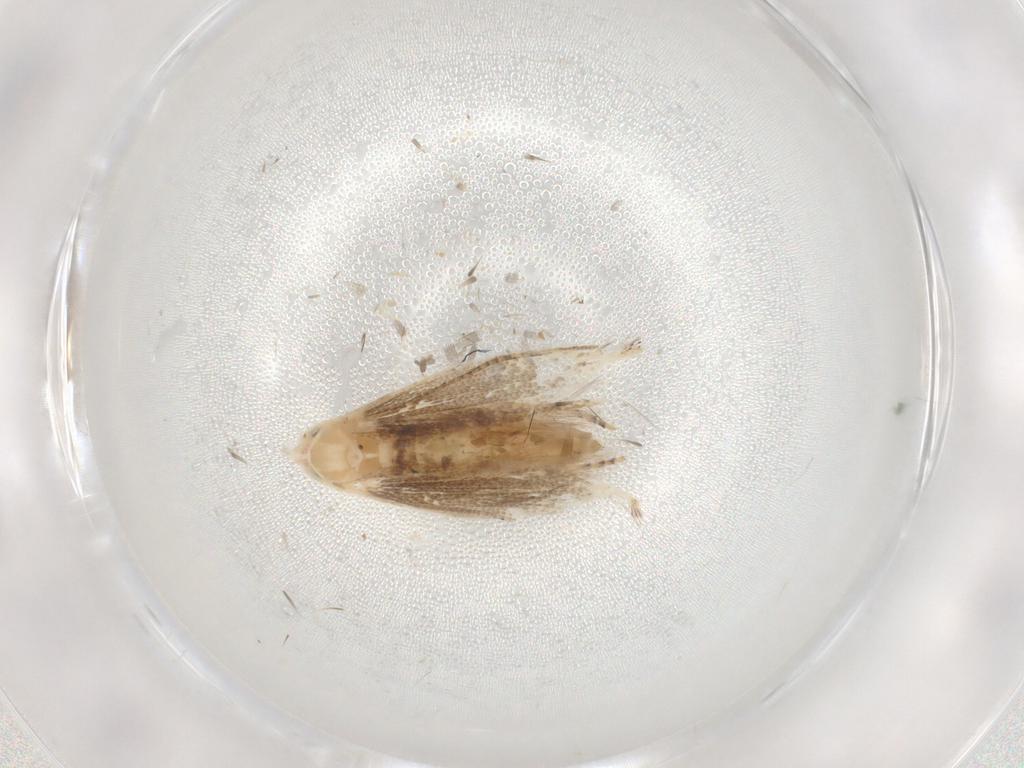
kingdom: Animalia
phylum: Arthropoda
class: Insecta
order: Lepidoptera
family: Bucculatricidae
